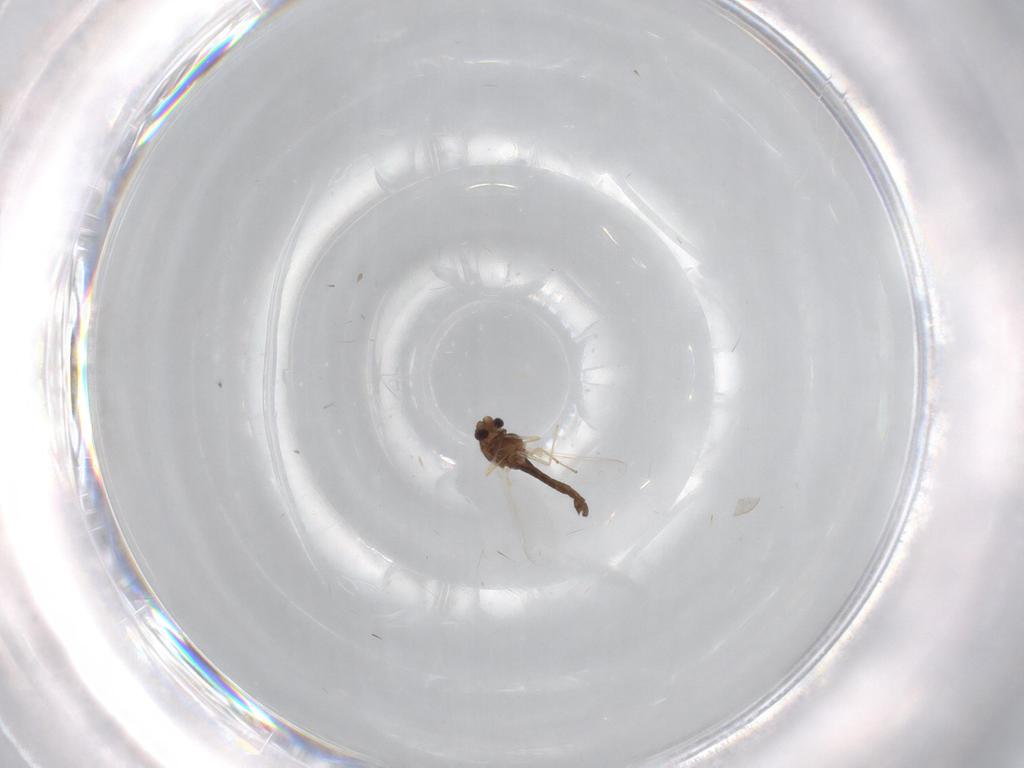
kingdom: Animalia
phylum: Arthropoda
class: Insecta
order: Diptera
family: Chironomidae
